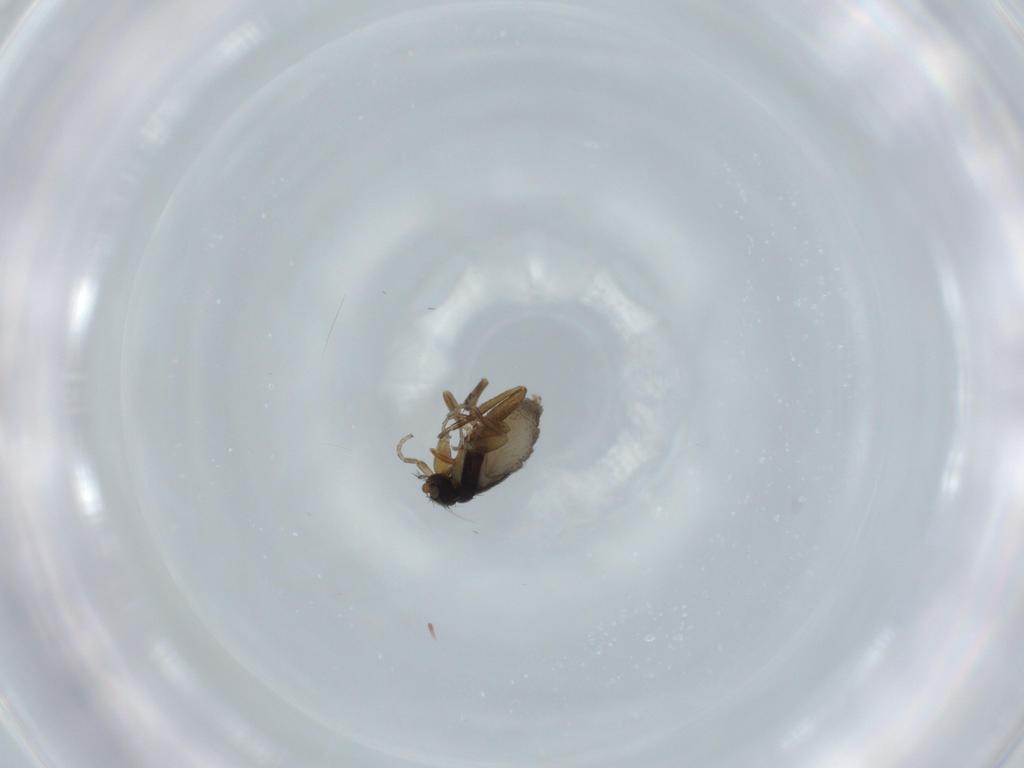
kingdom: Animalia
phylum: Arthropoda
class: Insecta
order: Diptera
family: Phoridae
